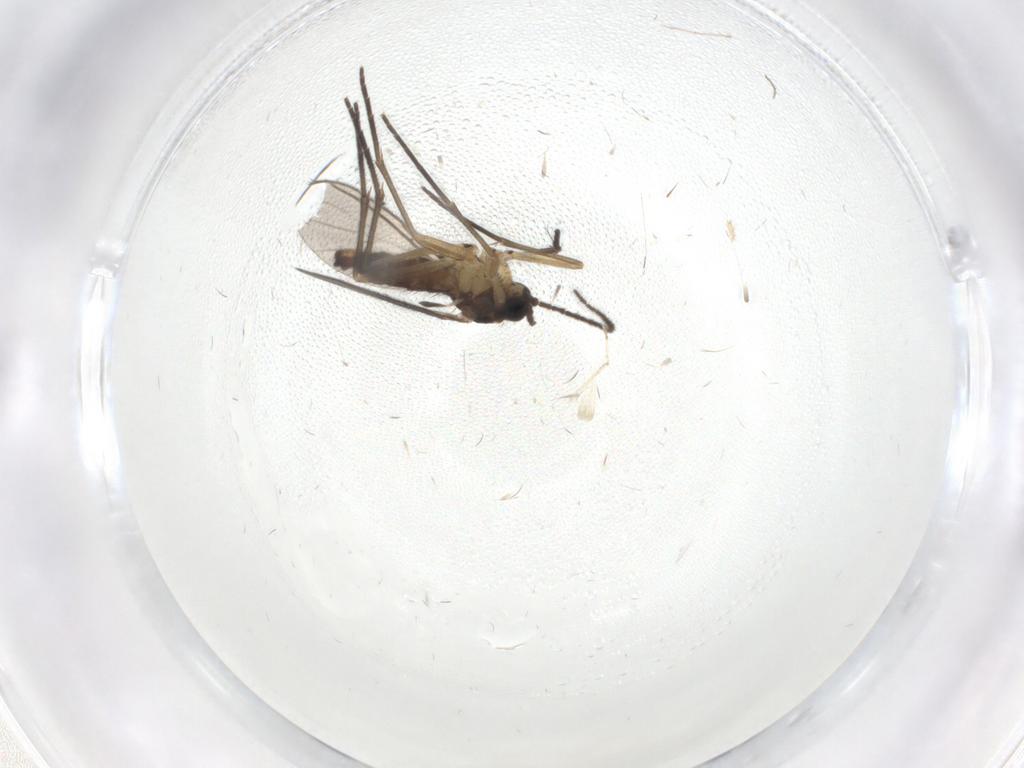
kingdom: Animalia
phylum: Arthropoda
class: Insecta
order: Diptera
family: Sciaridae
